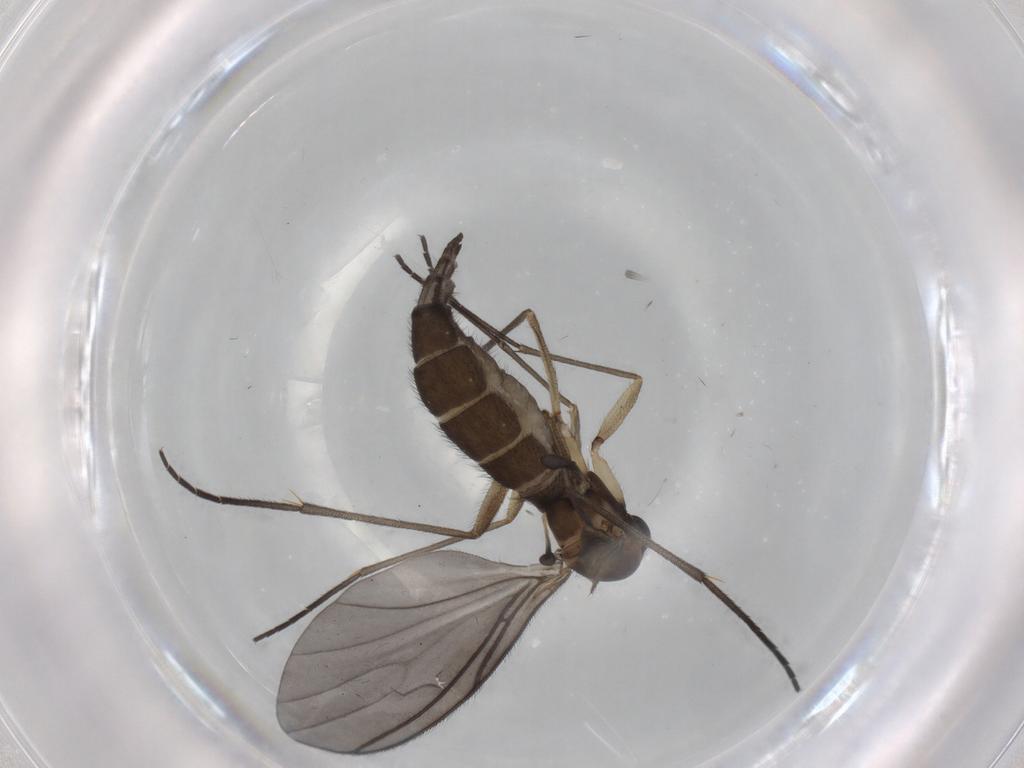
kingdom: Animalia
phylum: Arthropoda
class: Insecta
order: Diptera
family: Sciaridae
